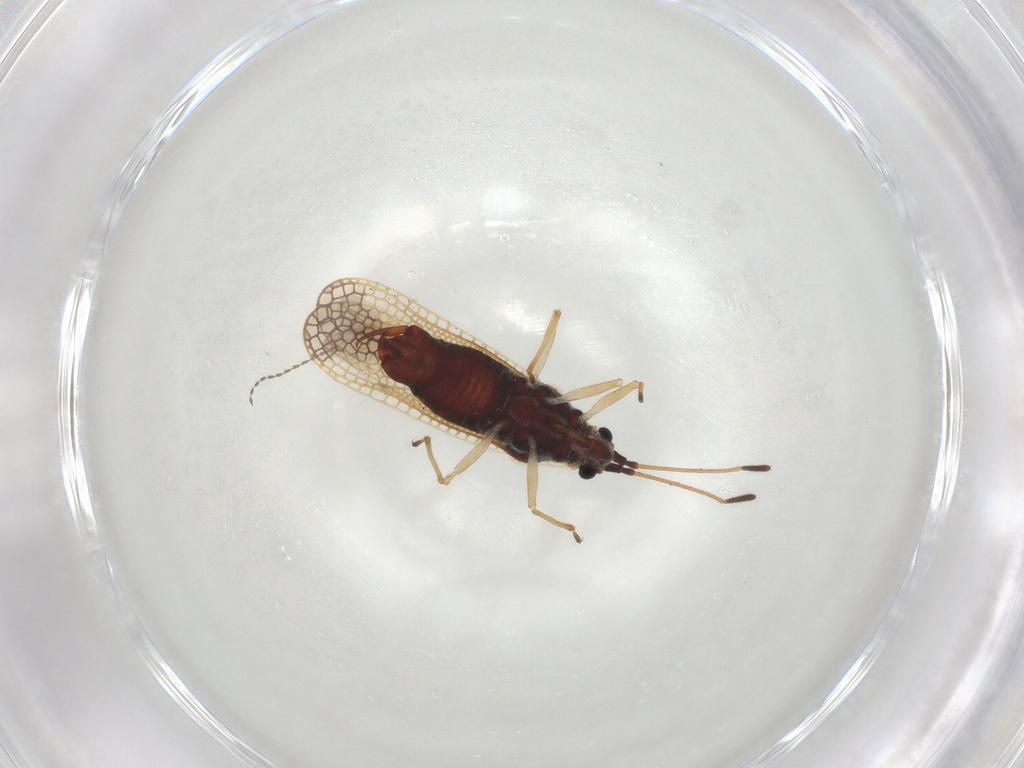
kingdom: Animalia
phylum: Arthropoda
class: Insecta
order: Hemiptera
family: Tingidae
